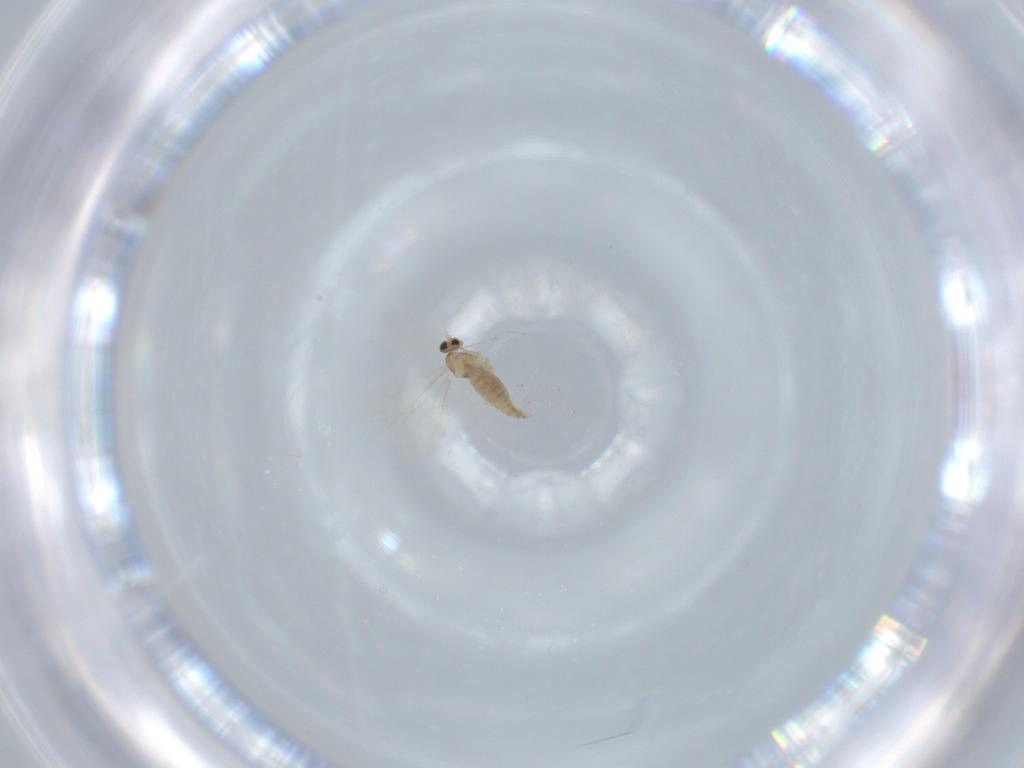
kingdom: Animalia
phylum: Arthropoda
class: Insecta
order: Diptera
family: Cecidomyiidae
